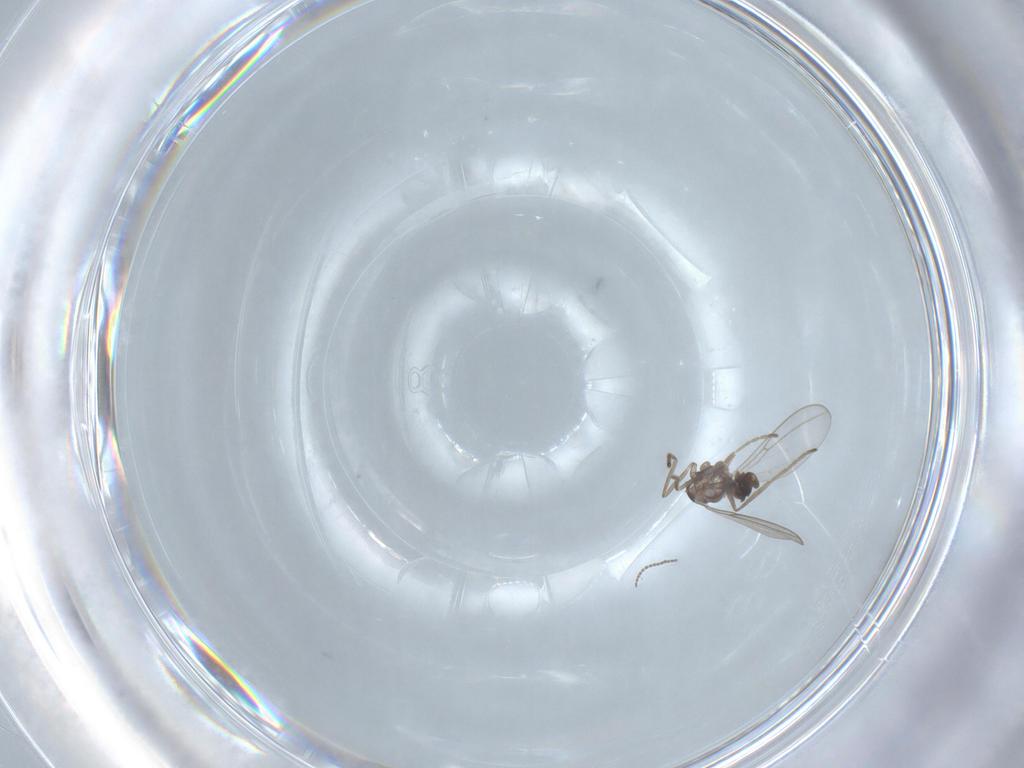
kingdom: Animalia
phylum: Arthropoda
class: Insecta
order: Diptera
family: Cecidomyiidae
